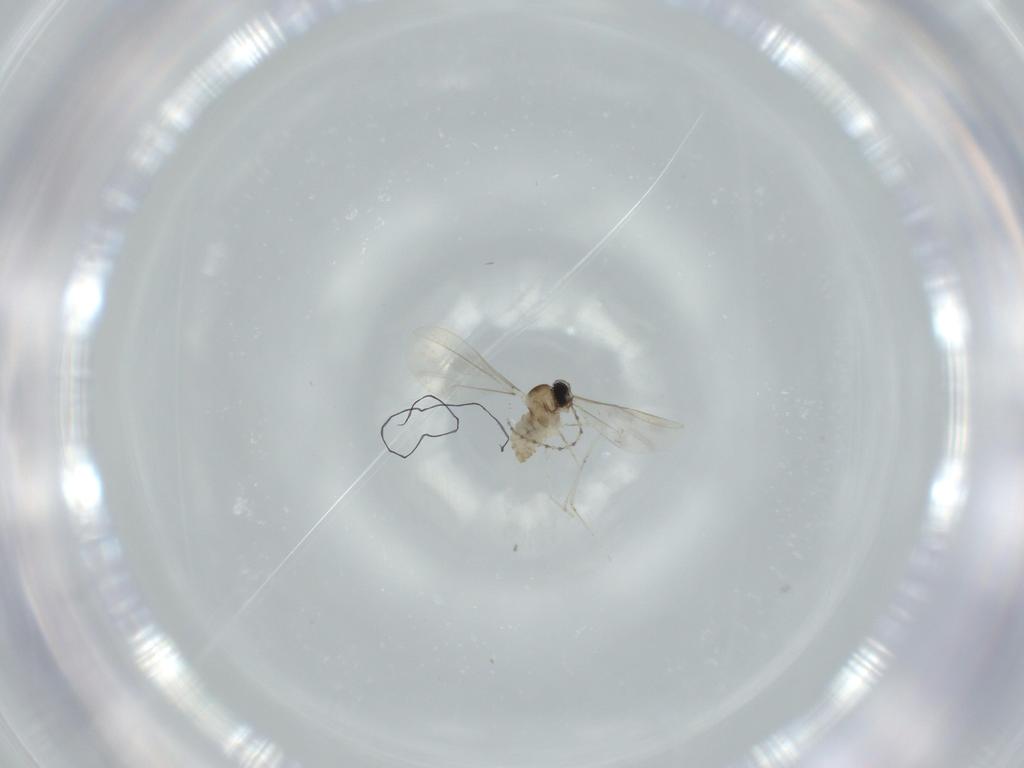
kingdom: Animalia
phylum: Arthropoda
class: Insecta
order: Diptera
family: Cecidomyiidae
